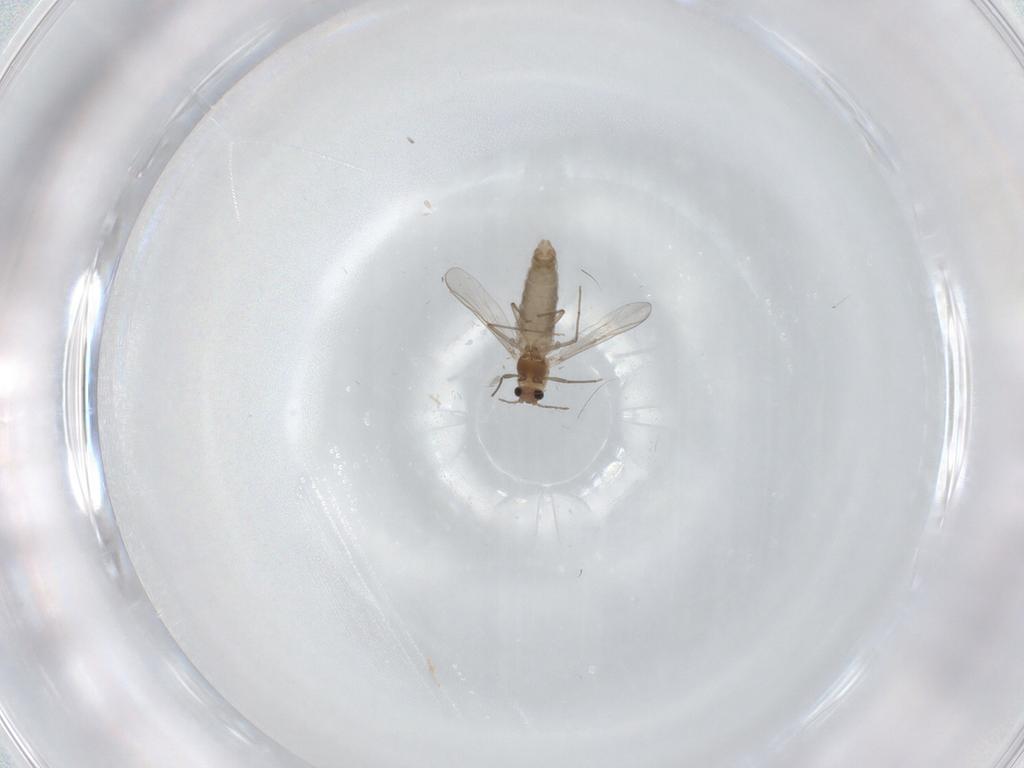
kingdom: Animalia
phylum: Arthropoda
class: Insecta
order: Diptera
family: Chironomidae
